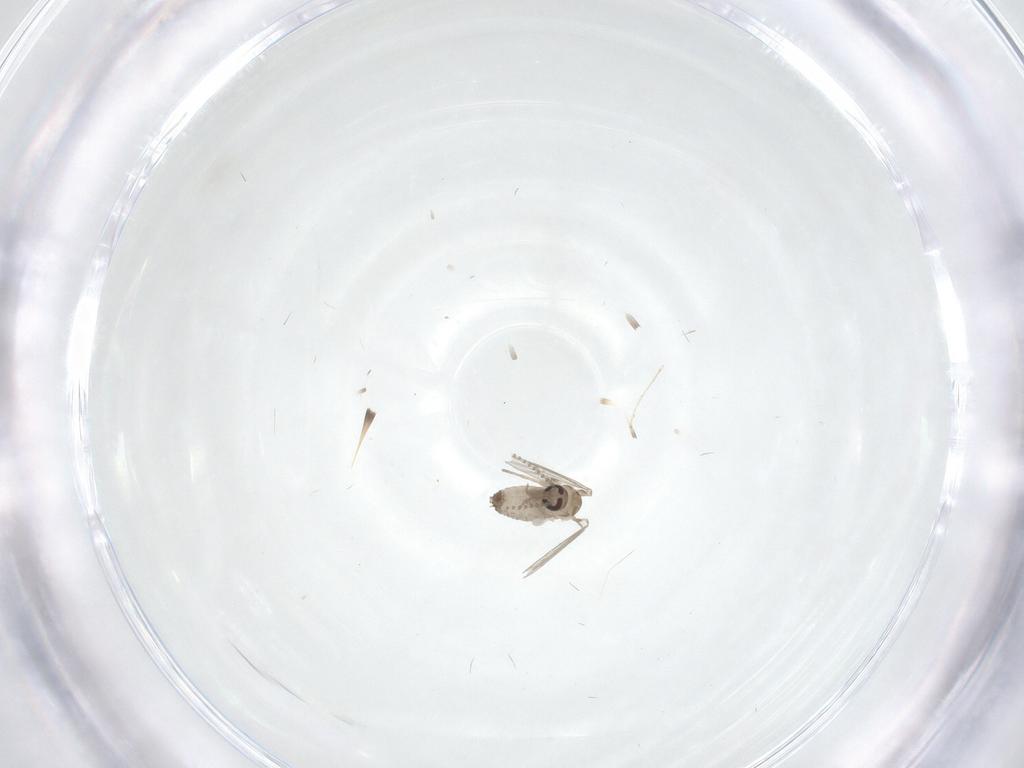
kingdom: Animalia
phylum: Arthropoda
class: Insecta
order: Diptera
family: Psychodidae
